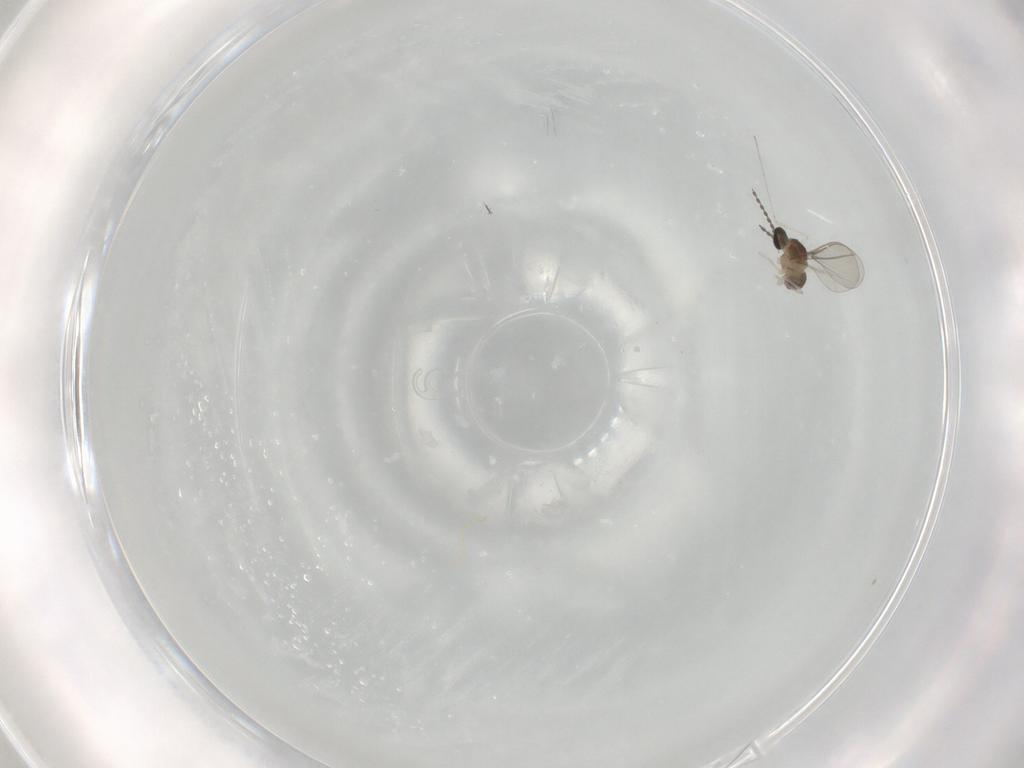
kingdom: Animalia
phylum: Arthropoda
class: Insecta
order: Diptera
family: Cecidomyiidae
